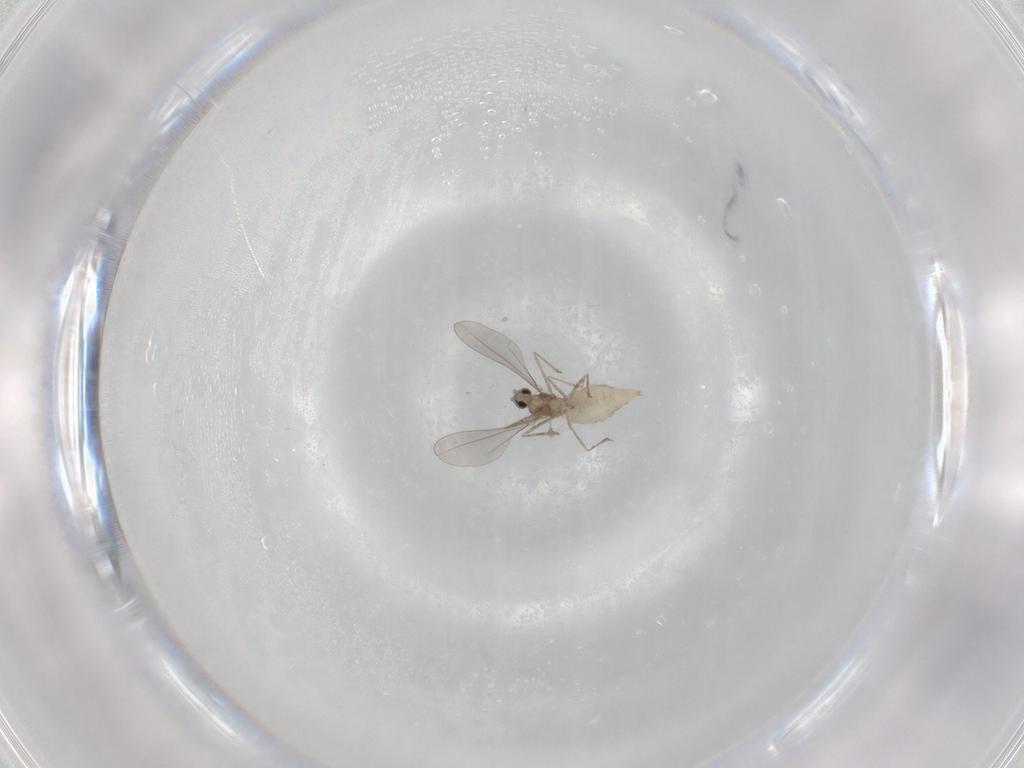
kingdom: Animalia
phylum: Arthropoda
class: Insecta
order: Diptera
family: Cecidomyiidae
